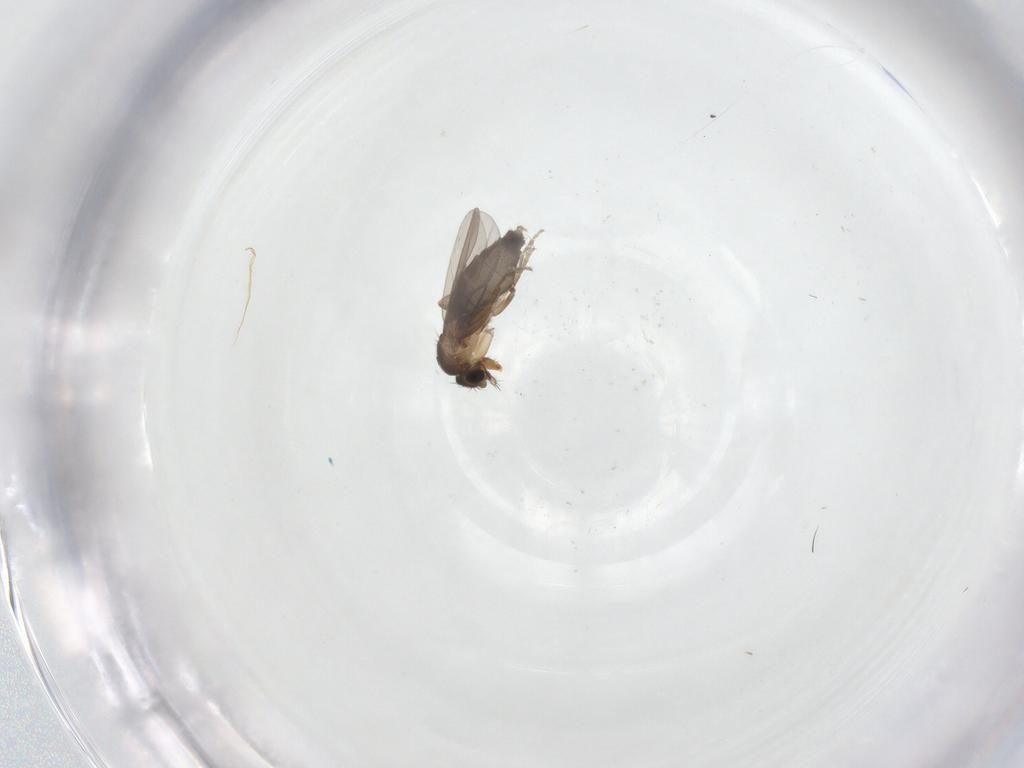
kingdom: Animalia
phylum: Arthropoda
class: Insecta
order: Diptera
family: Phoridae
